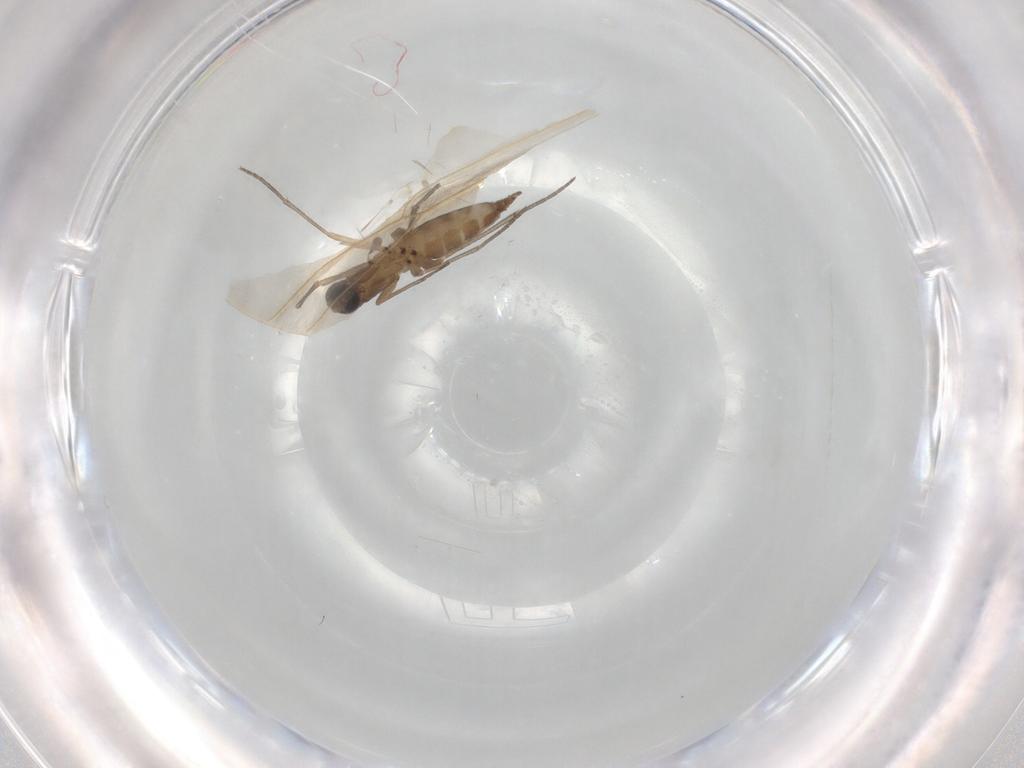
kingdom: Animalia
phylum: Arthropoda
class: Insecta
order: Diptera
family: Sciaridae
